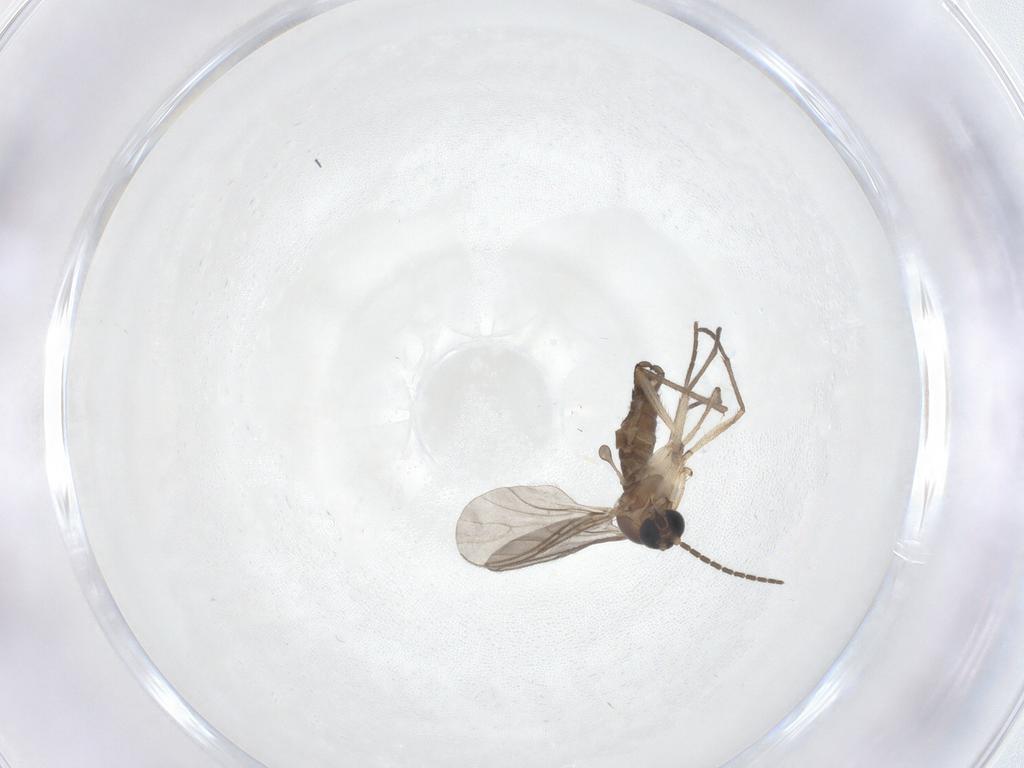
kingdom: Animalia
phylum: Arthropoda
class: Insecta
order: Diptera
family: Sciaridae
